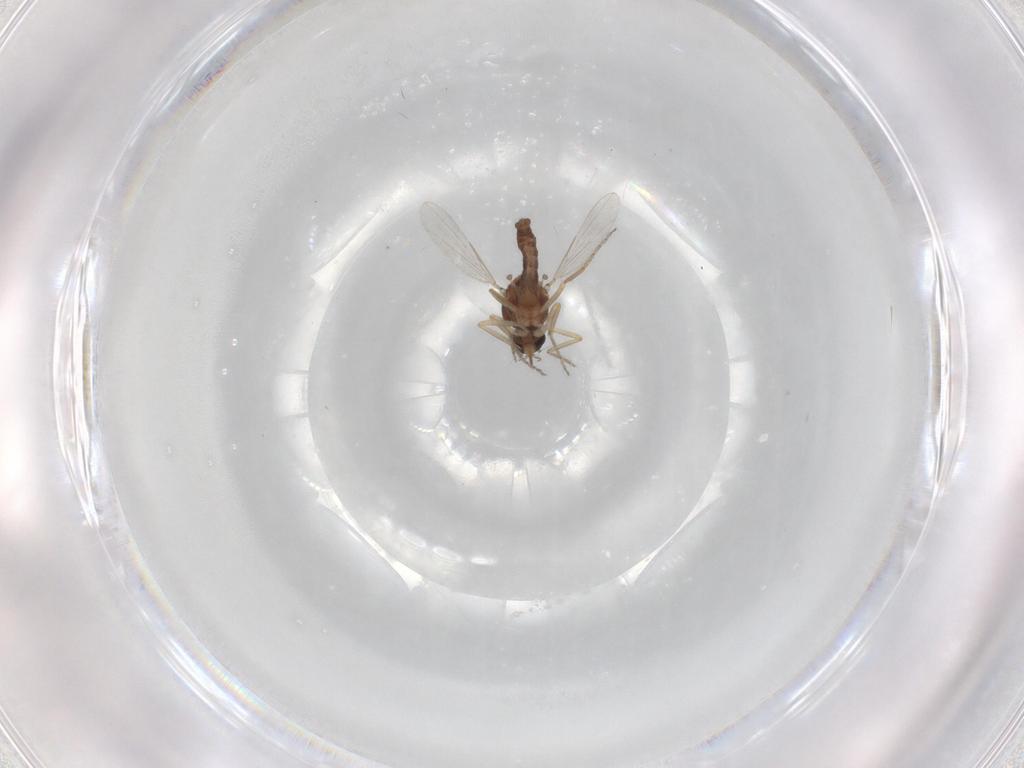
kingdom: Animalia
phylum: Arthropoda
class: Insecta
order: Diptera
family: Ceratopogonidae
